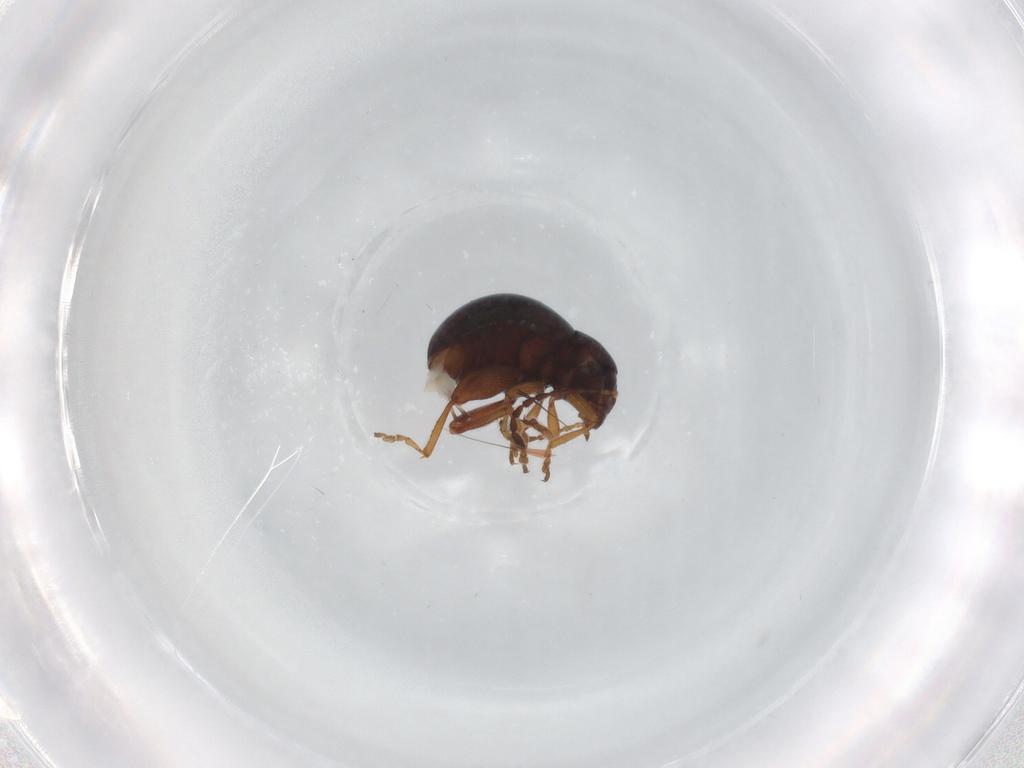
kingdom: Animalia
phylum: Arthropoda
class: Insecta
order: Coleoptera
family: Chrysomelidae
